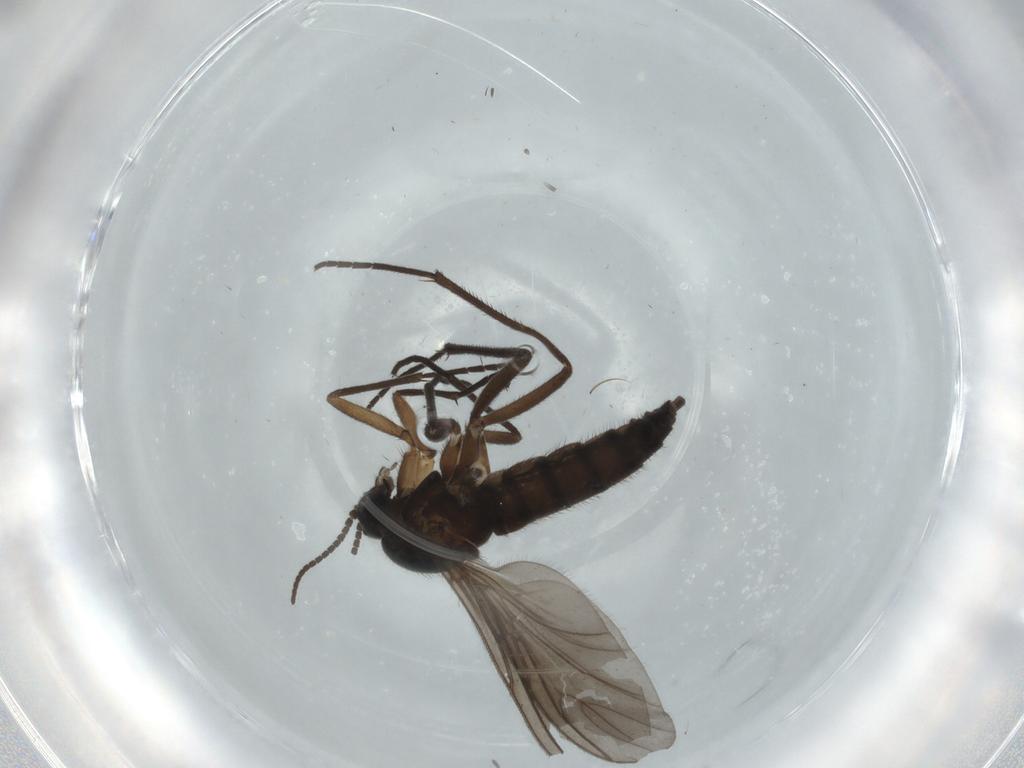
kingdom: Animalia
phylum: Arthropoda
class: Insecta
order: Diptera
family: Sciaridae
